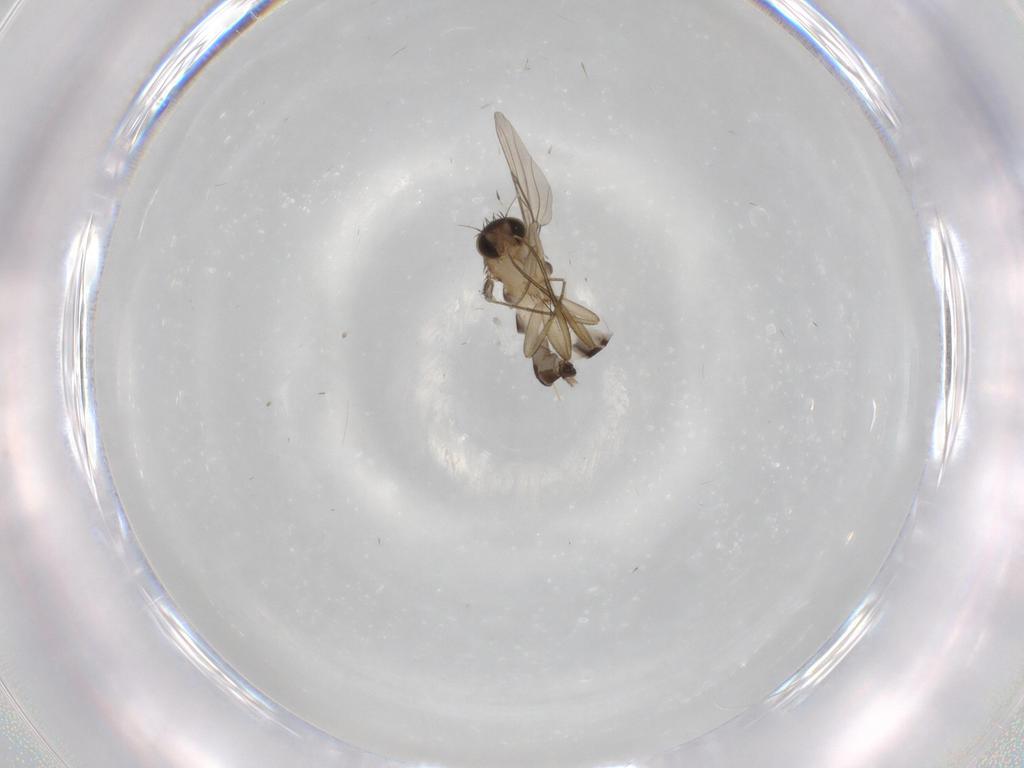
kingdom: Animalia
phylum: Arthropoda
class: Insecta
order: Diptera
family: Phoridae
